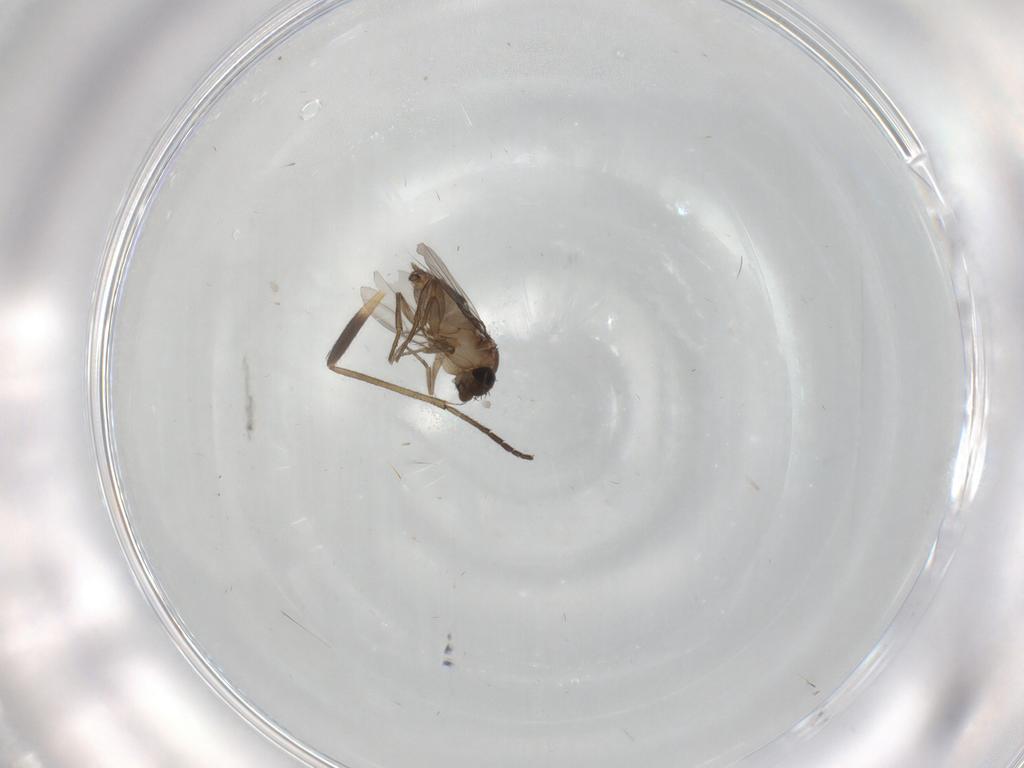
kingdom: Animalia
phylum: Arthropoda
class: Insecta
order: Diptera
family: Phoridae
